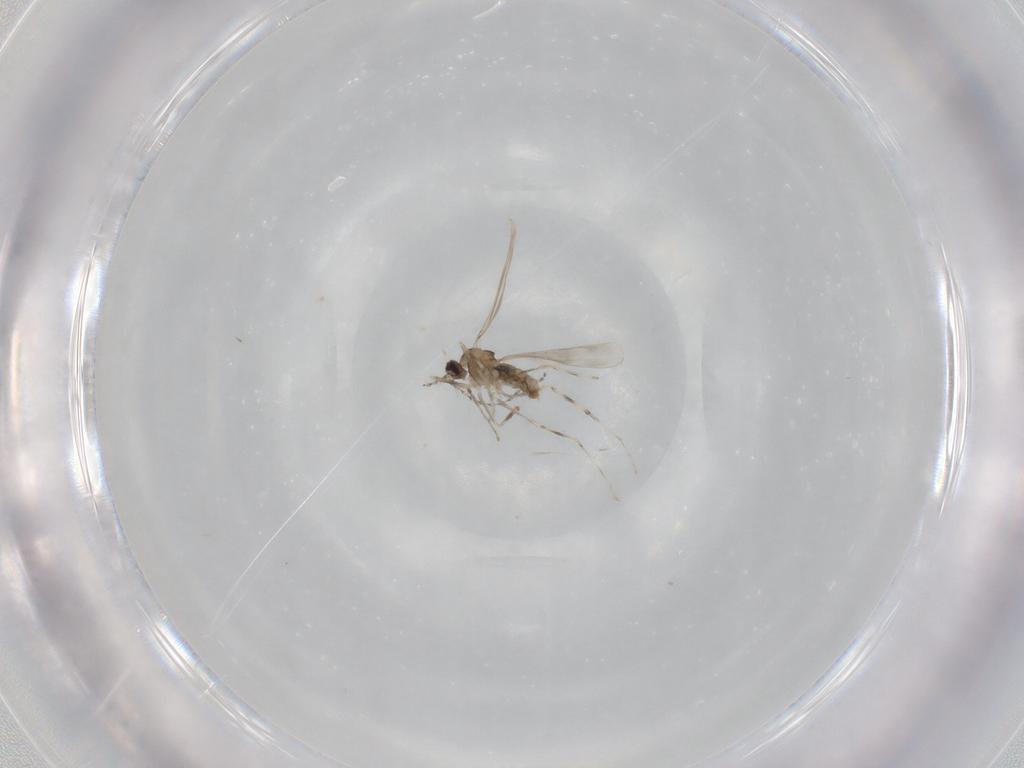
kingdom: Animalia
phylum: Arthropoda
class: Insecta
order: Diptera
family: Cecidomyiidae
